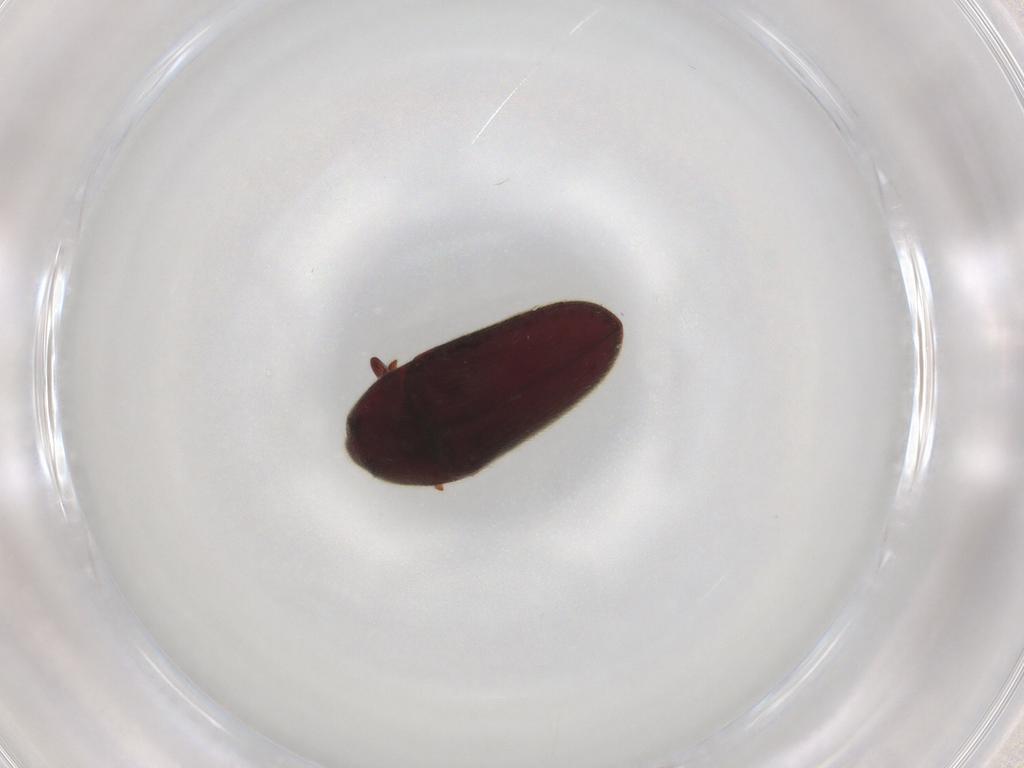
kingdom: Animalia
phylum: Arthropoda
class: Insecta
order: Coleoptera
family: Throscidae
